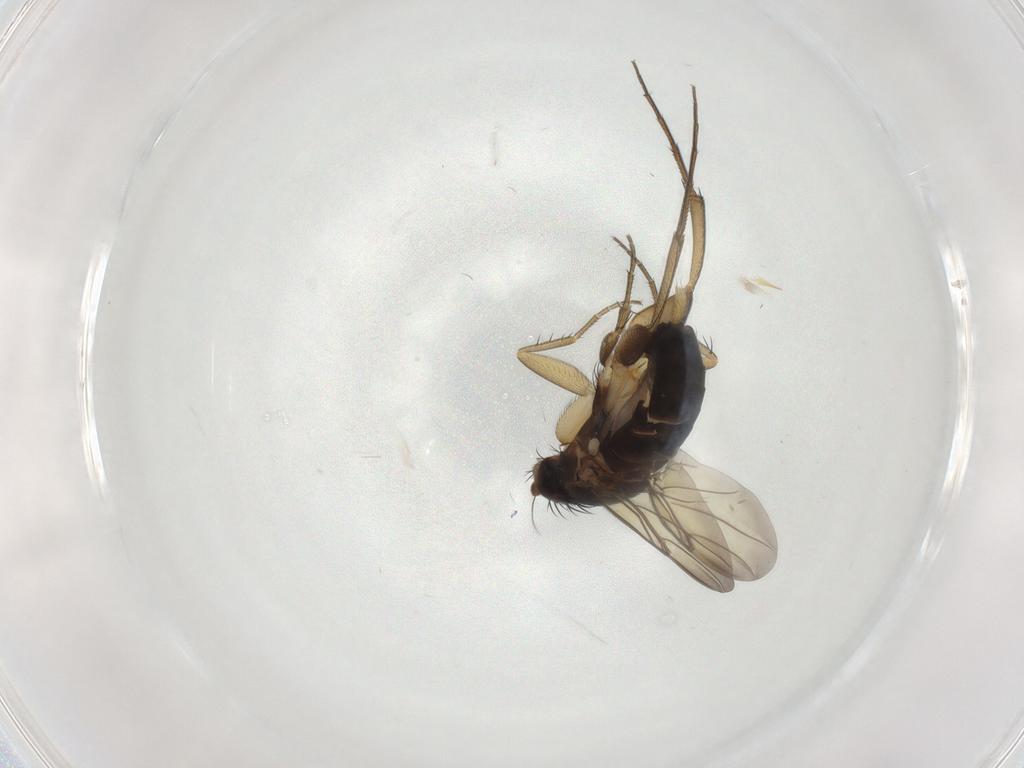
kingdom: Animalia
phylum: Arthropoda
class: Insecta
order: Diptera
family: Phoridae
